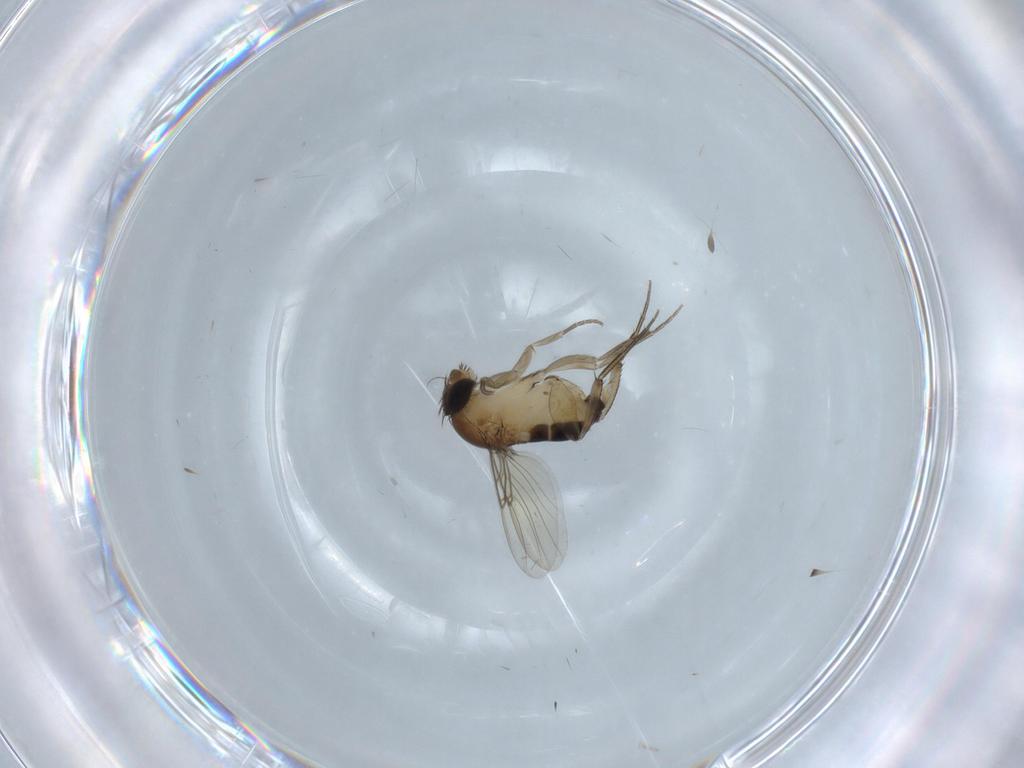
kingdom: Animalia
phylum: Arthropoda
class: Insecta
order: Diptera
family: Phoridae
